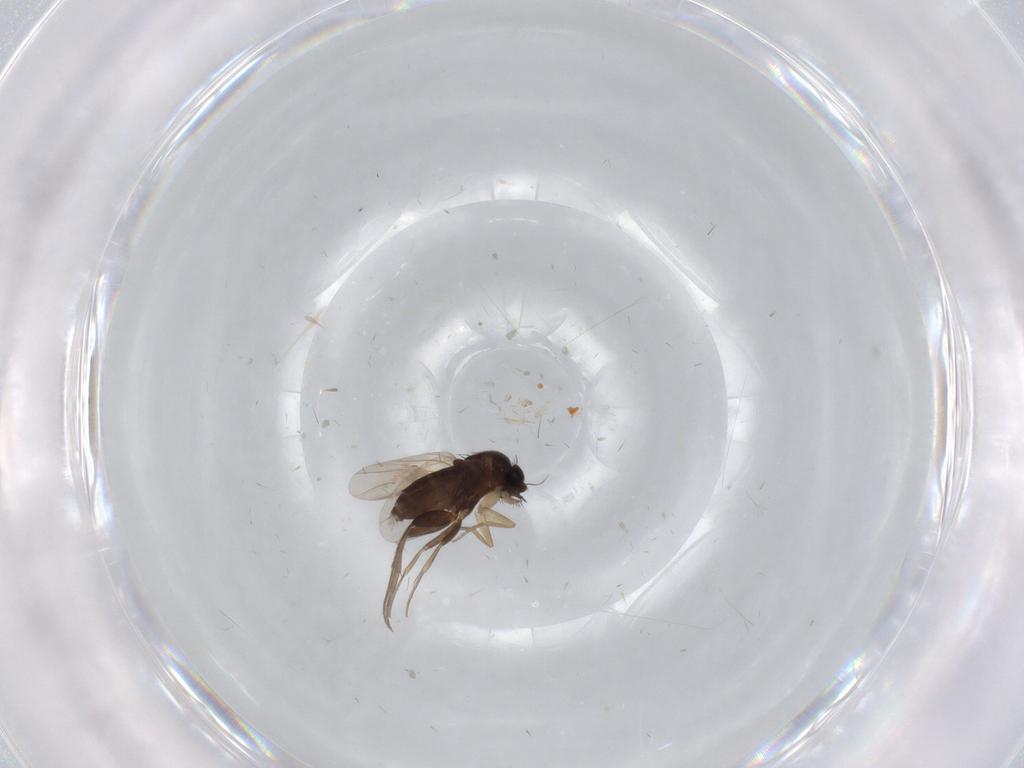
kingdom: Animalia
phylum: Arthropoda
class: Insecta
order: Diptera
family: Phoridae
